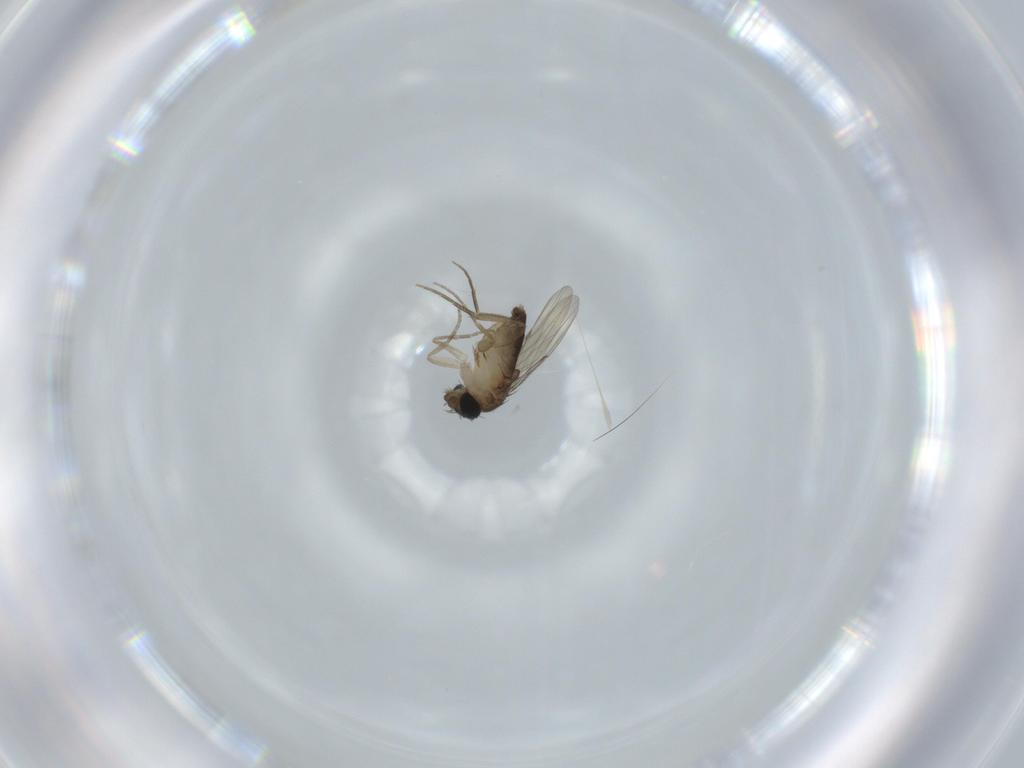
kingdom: Animalia
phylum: Arthropoda
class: Insecta
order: Diptera
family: Phoridae
